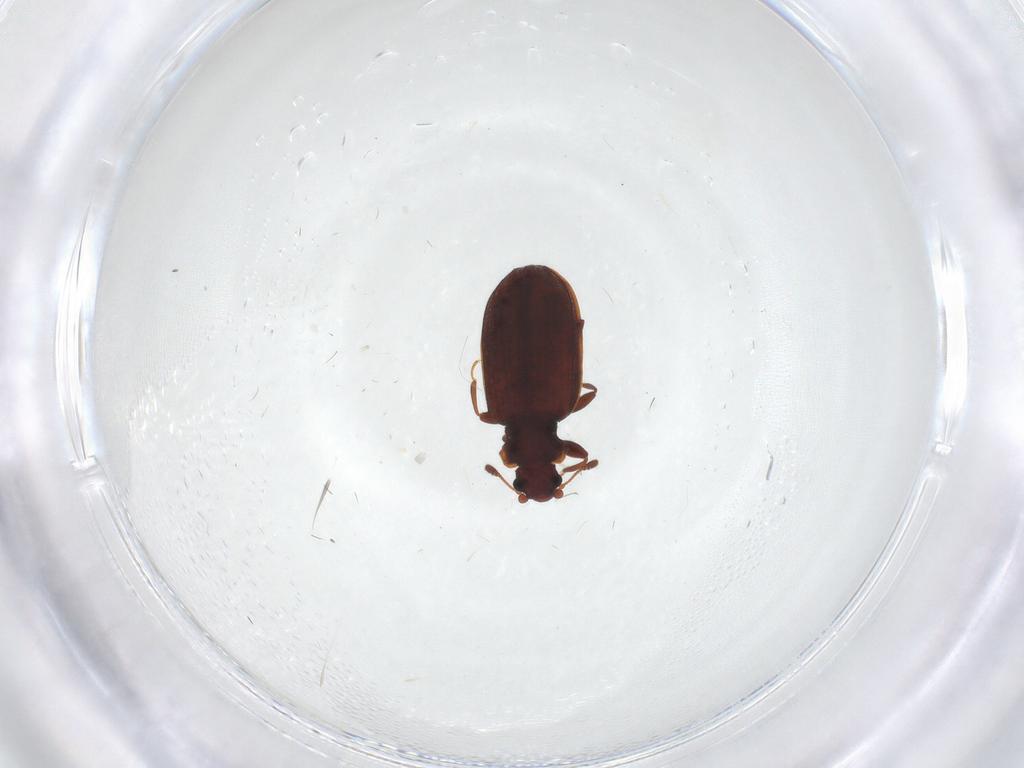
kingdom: Animalia
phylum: Arthropoda
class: Insecta
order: Coleoptera
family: Latridiidae
